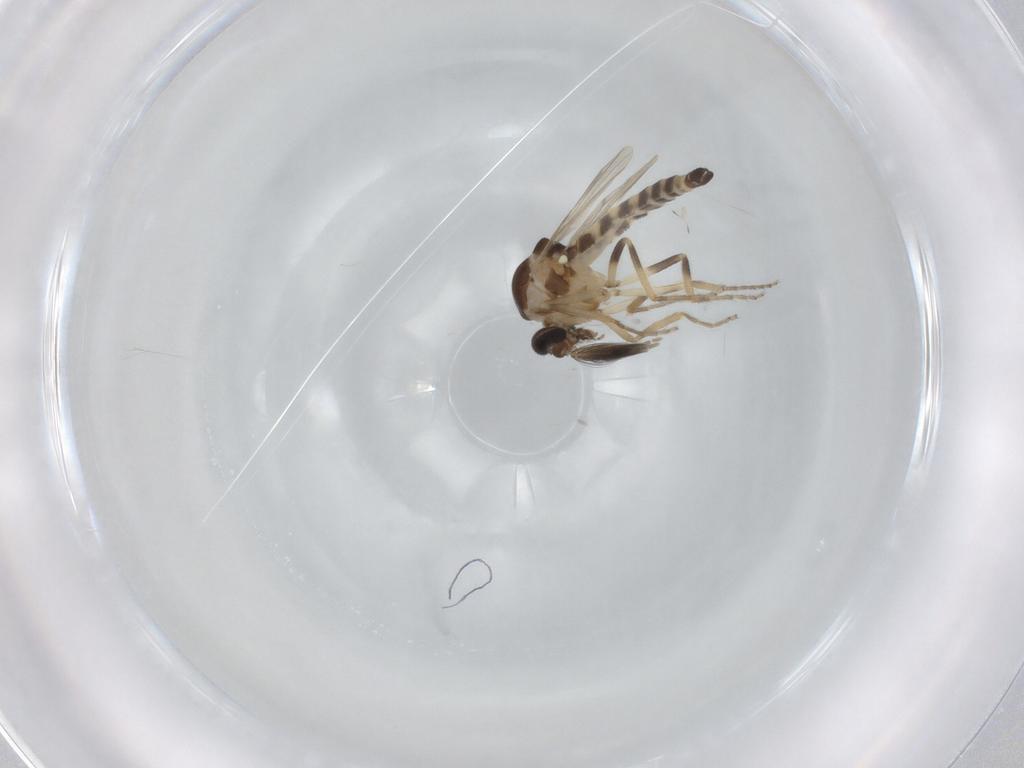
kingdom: Animalia
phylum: Arthropoda
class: Insecta
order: Diptera
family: Ceratopogonidae
